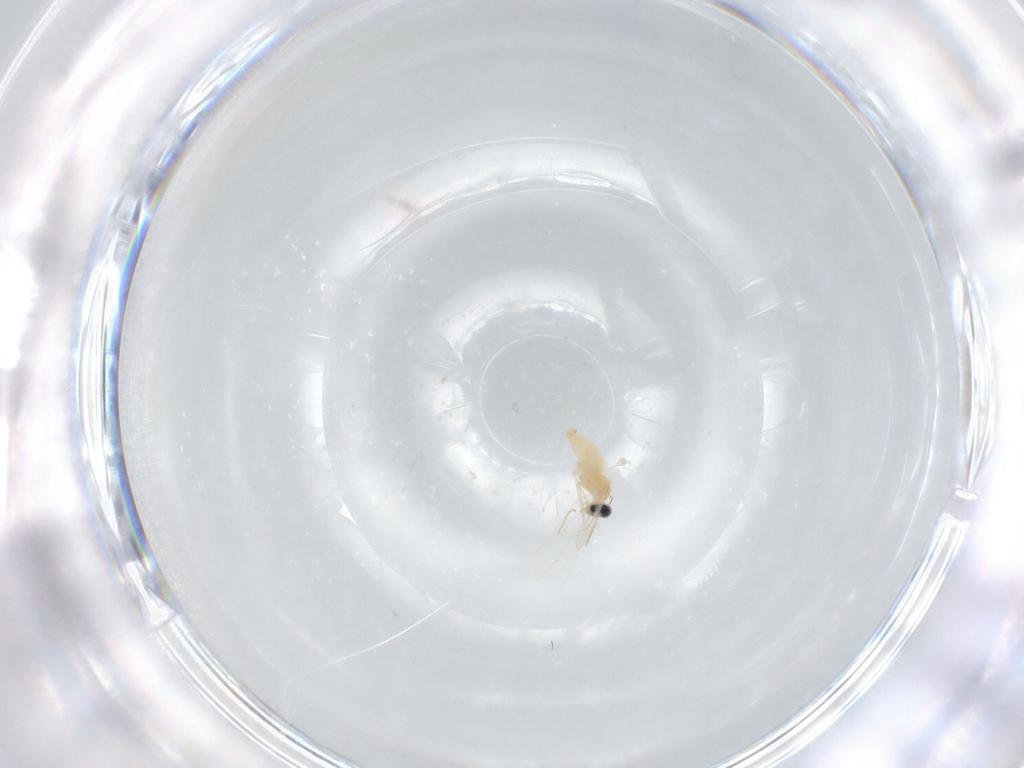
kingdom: Animalia
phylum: Arthropoda
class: Insecta
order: Diptera
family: Cecidomyiidae
